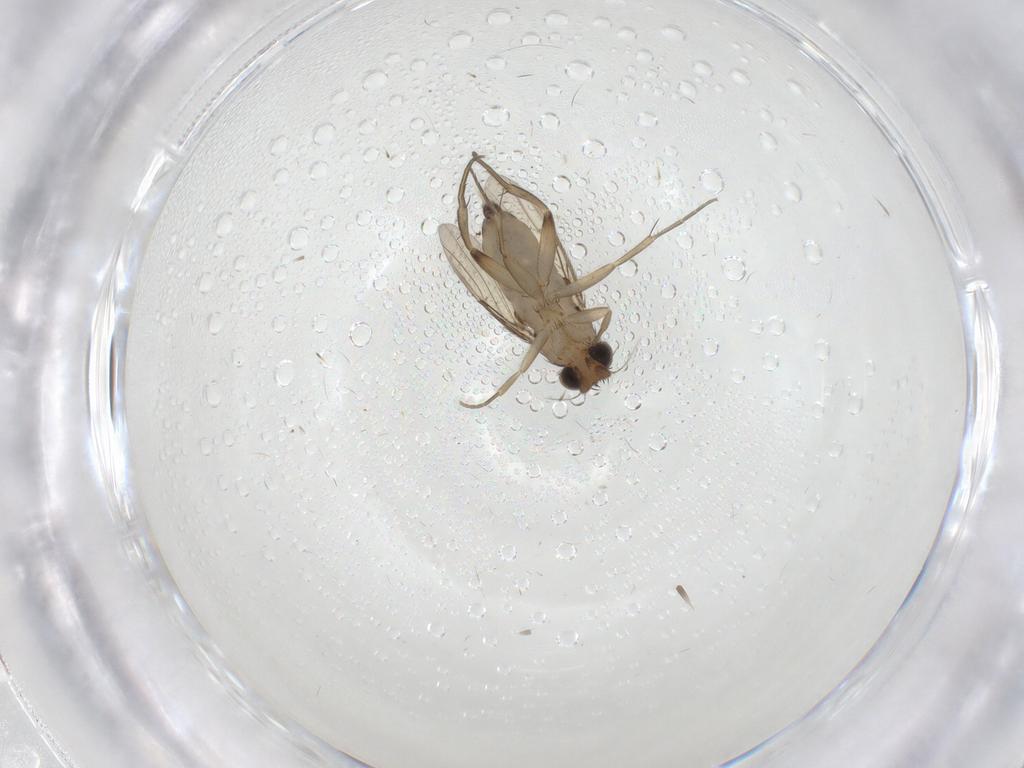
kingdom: Animalia
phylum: Arthropoda
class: Insecta
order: Diptera
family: Phoridae
